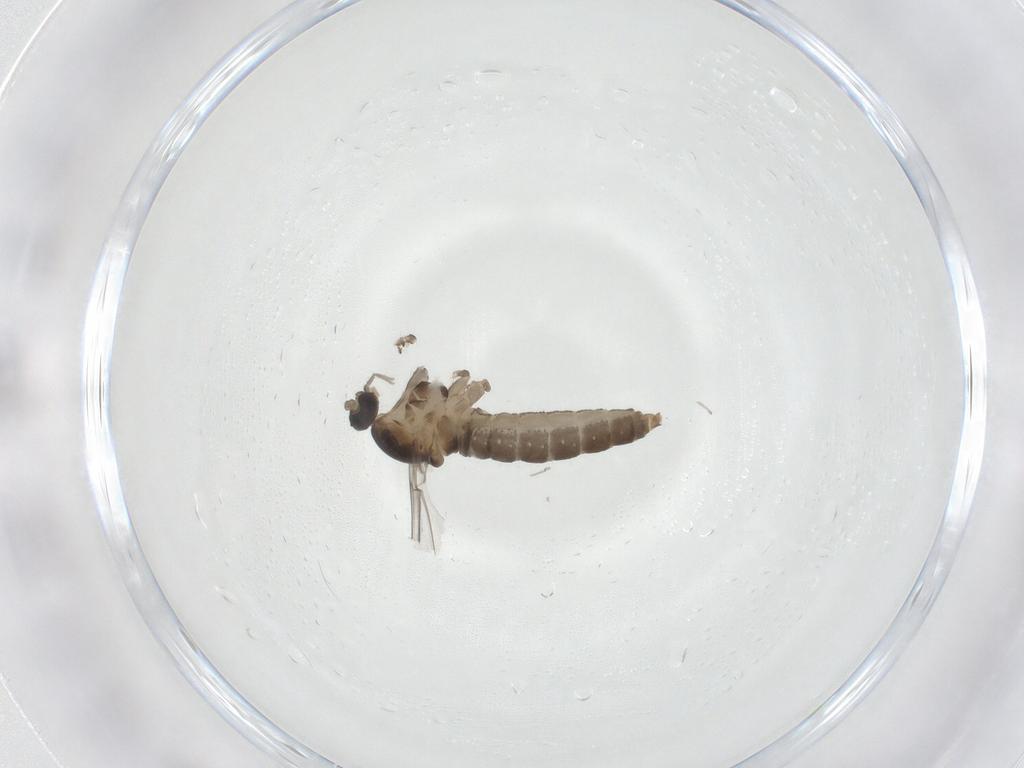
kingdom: Animalia
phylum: Arthropoda
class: Insecta
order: Diptera
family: Cecidomyiidae
